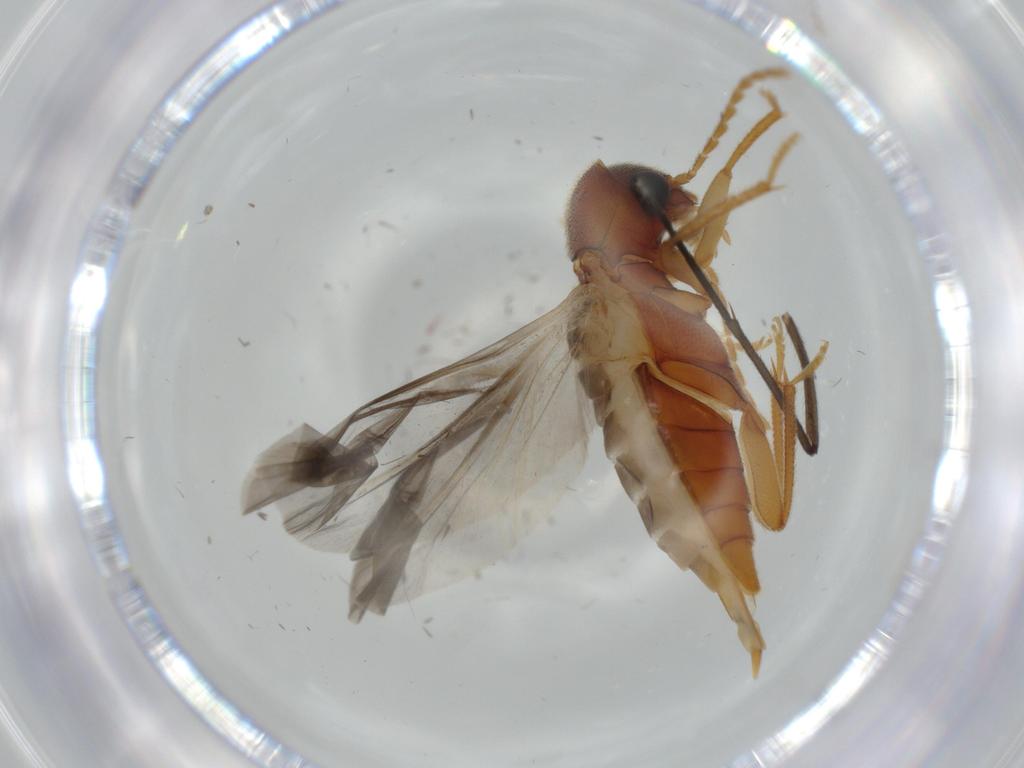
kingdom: Animalia
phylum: Arthropoda
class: Insecta
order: Coleoptera
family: Ptilodactylidae
